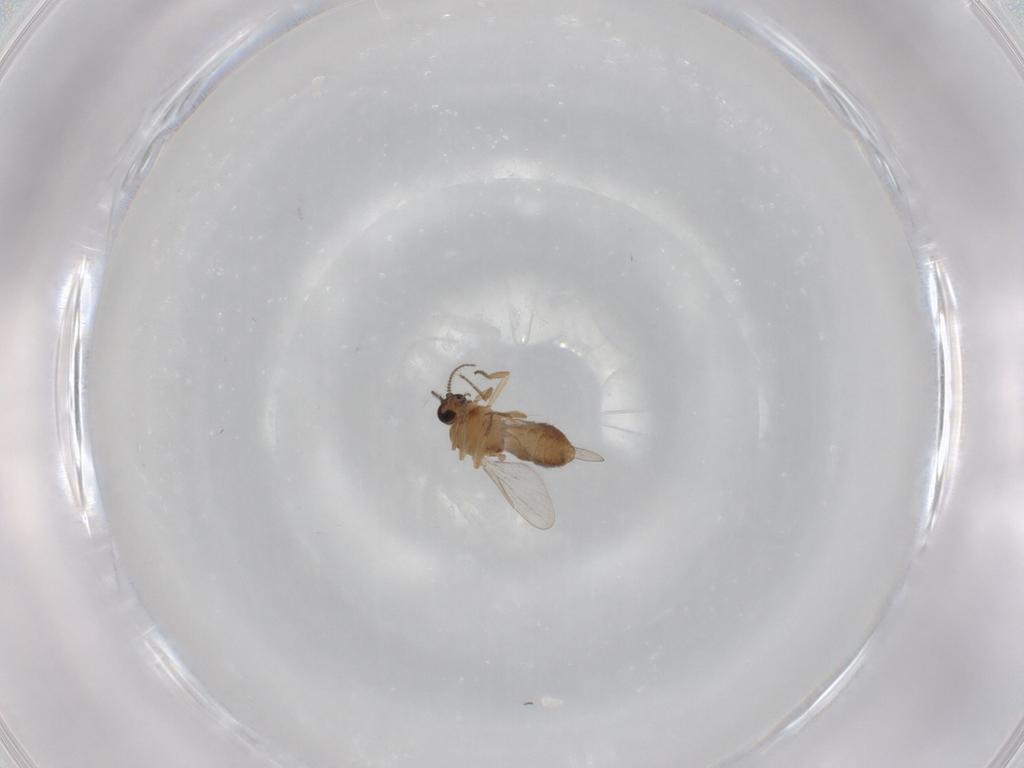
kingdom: Animalia
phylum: Arthropoda
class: Insecta
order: Diptera
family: Ceratopogonidae
